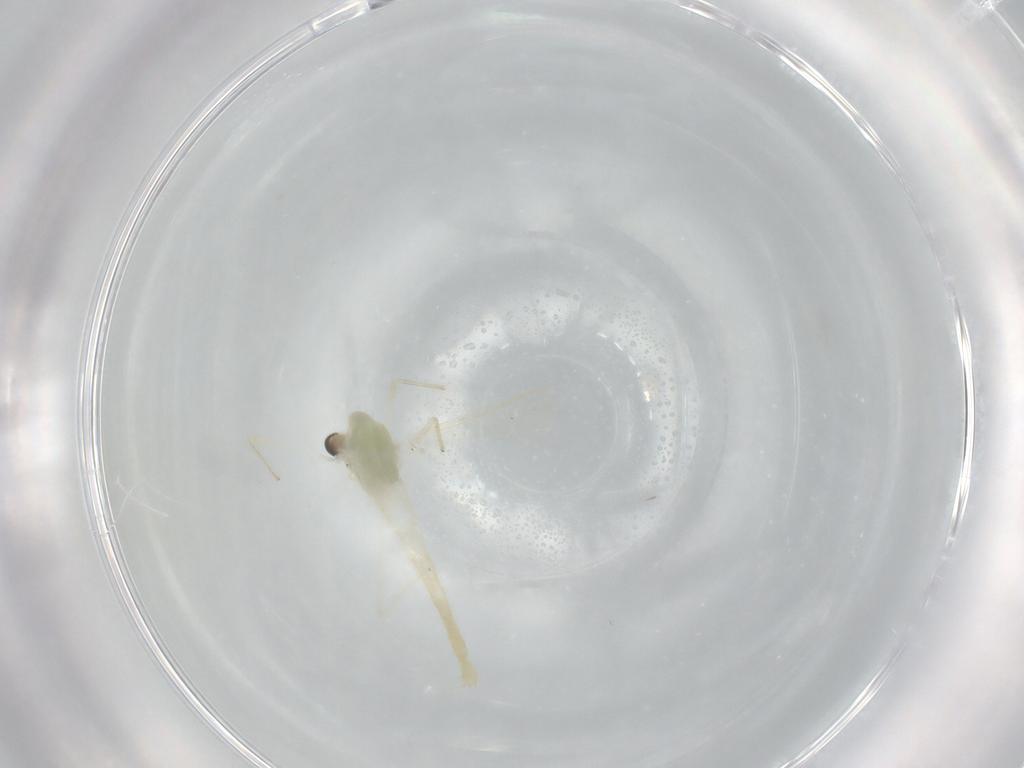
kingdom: Animalia
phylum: Arthropoda
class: Insecta
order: Diptera
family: Chironomidae
